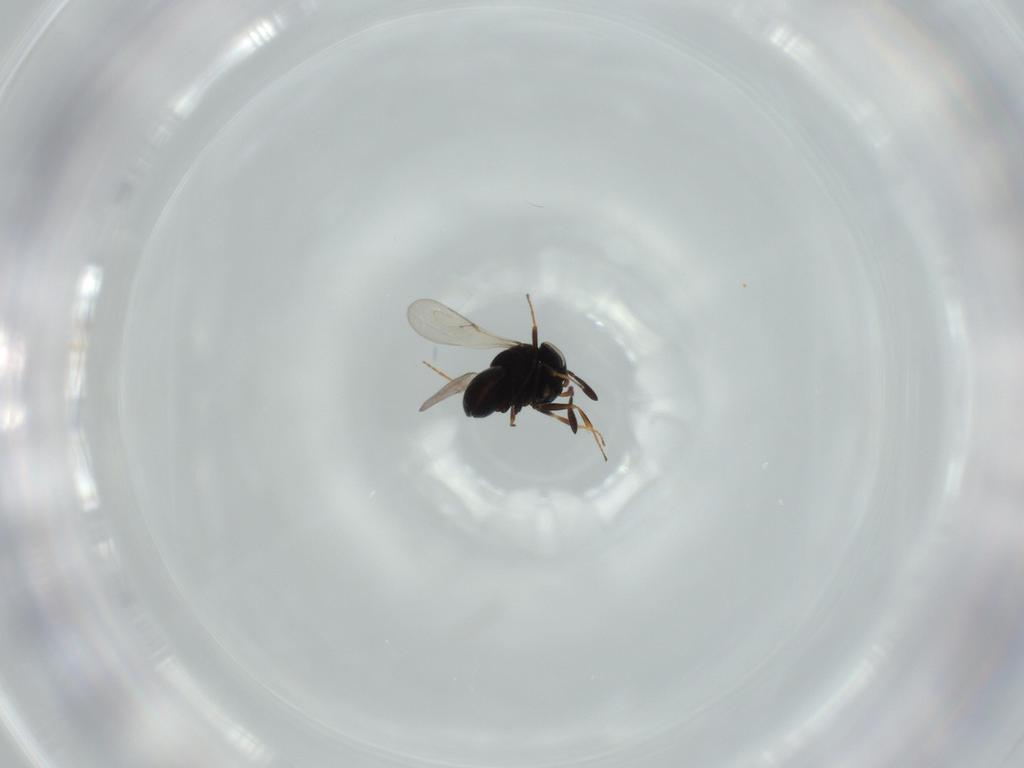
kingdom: Animalia
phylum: Arthropoda
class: Insecta
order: Hymenoptera
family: Scelionidae
